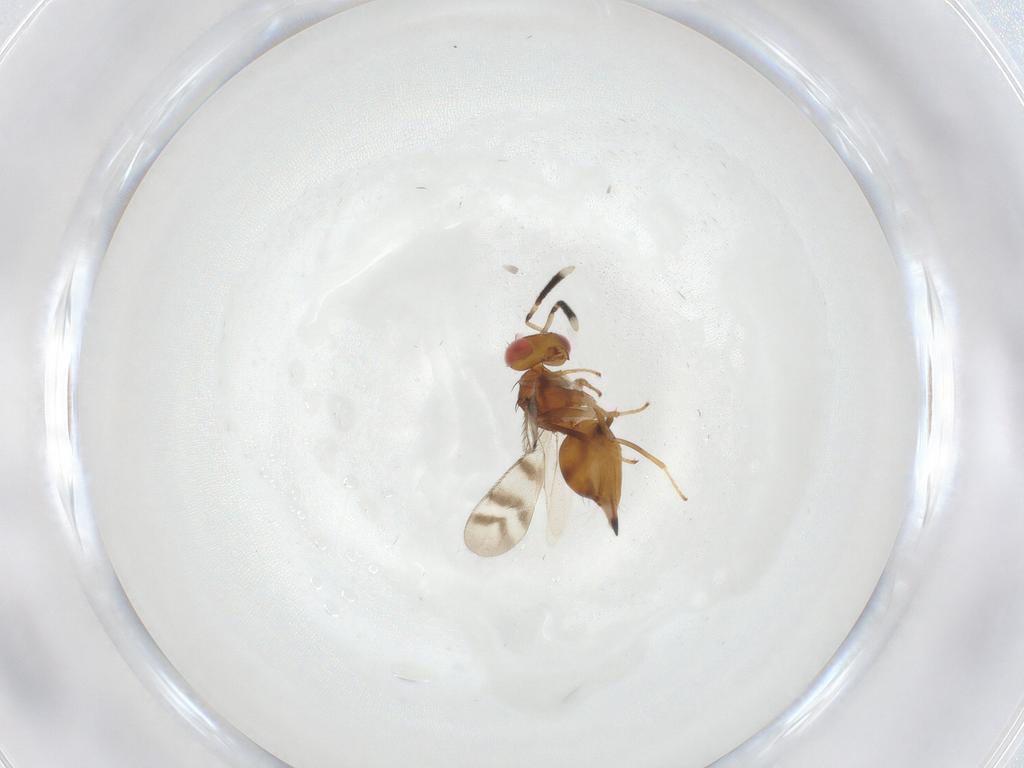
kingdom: Animalia
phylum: Arthropoda
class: Insecta
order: Hymenoptera
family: Diparidae
